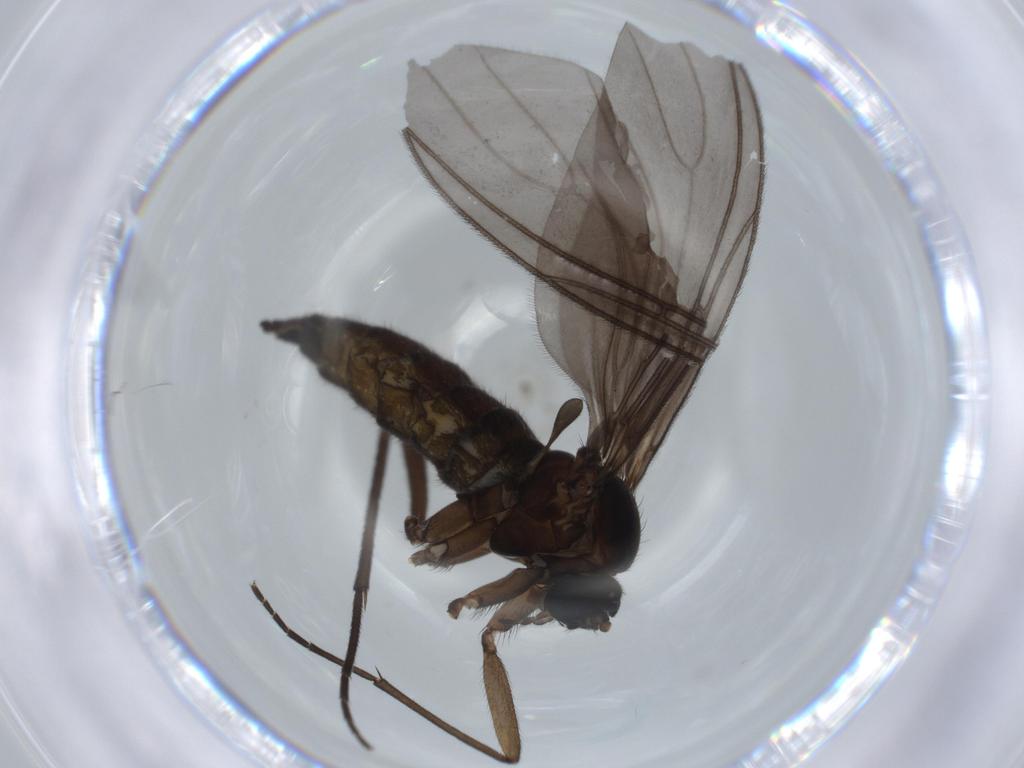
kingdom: Animalia
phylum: Arthropoda
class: Insecta
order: Diptera
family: Sciaridae
